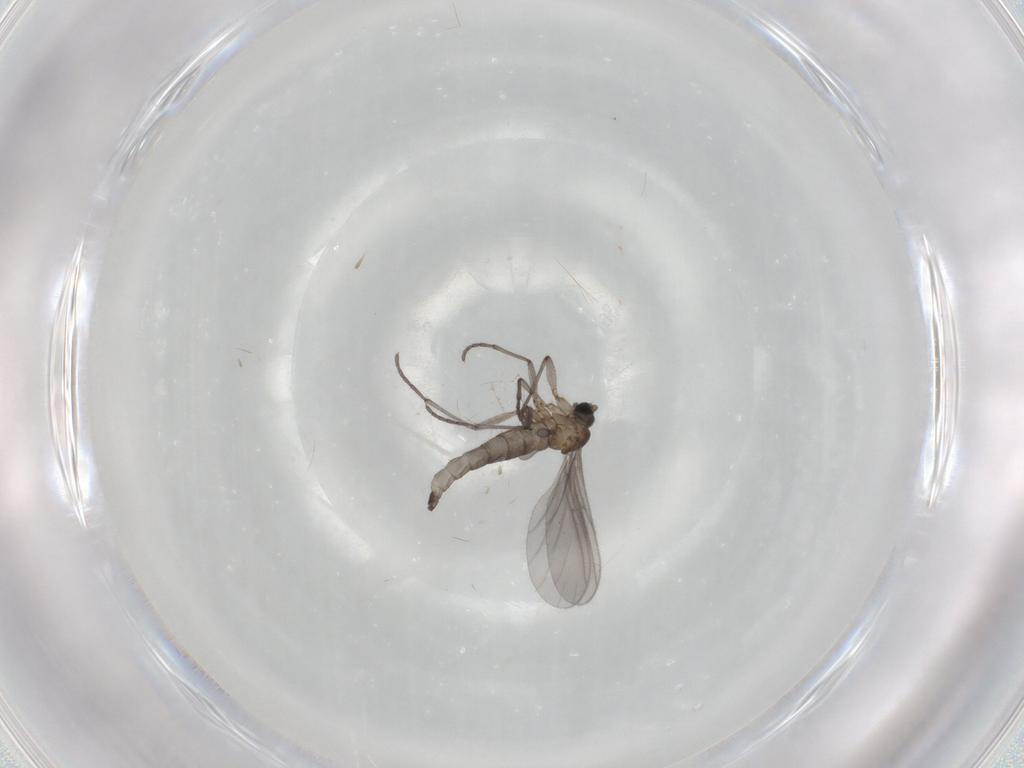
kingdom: Animalia
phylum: Arthropoda
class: Insecta
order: Diptera
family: Sciaridae
